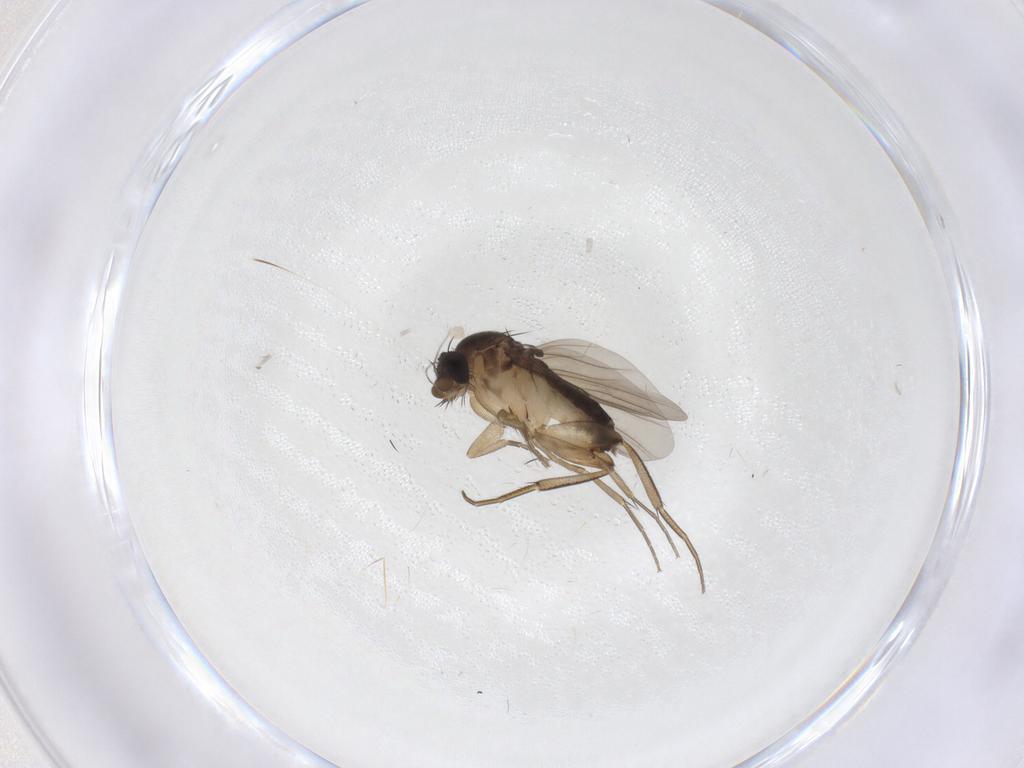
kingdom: Animalia
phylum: Arthropoda
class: Insecta
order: Diptera
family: Phoridae
